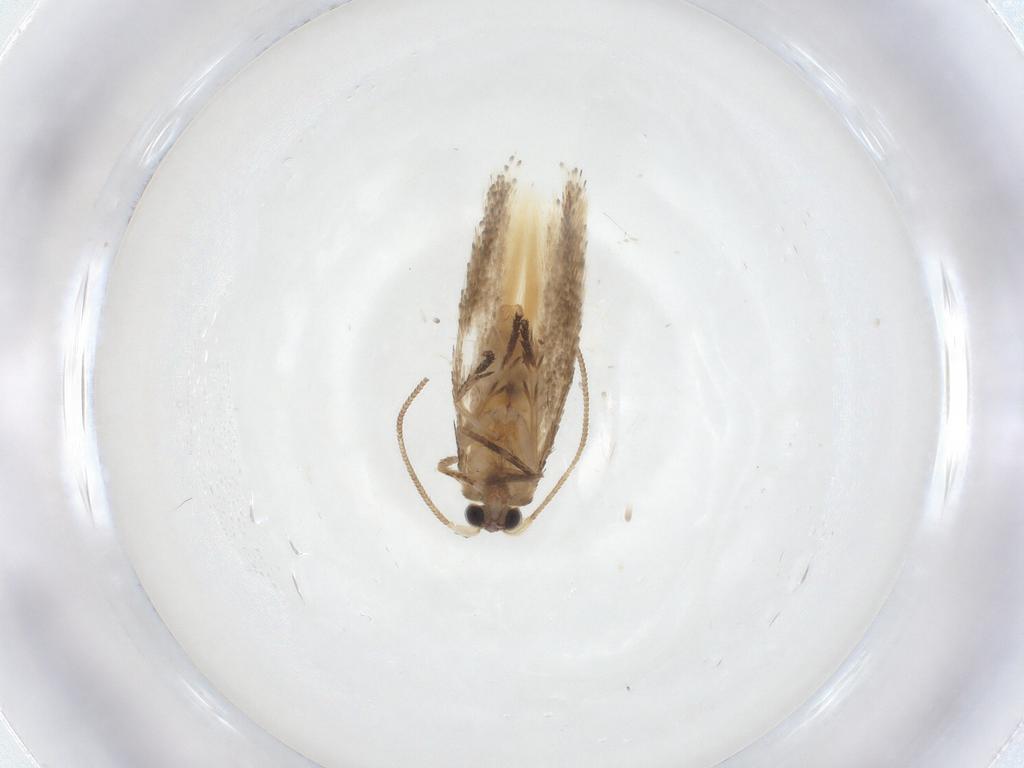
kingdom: Animalia
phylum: Arthropoda
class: Insecta
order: Lepidoptera
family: Nepticulidae
